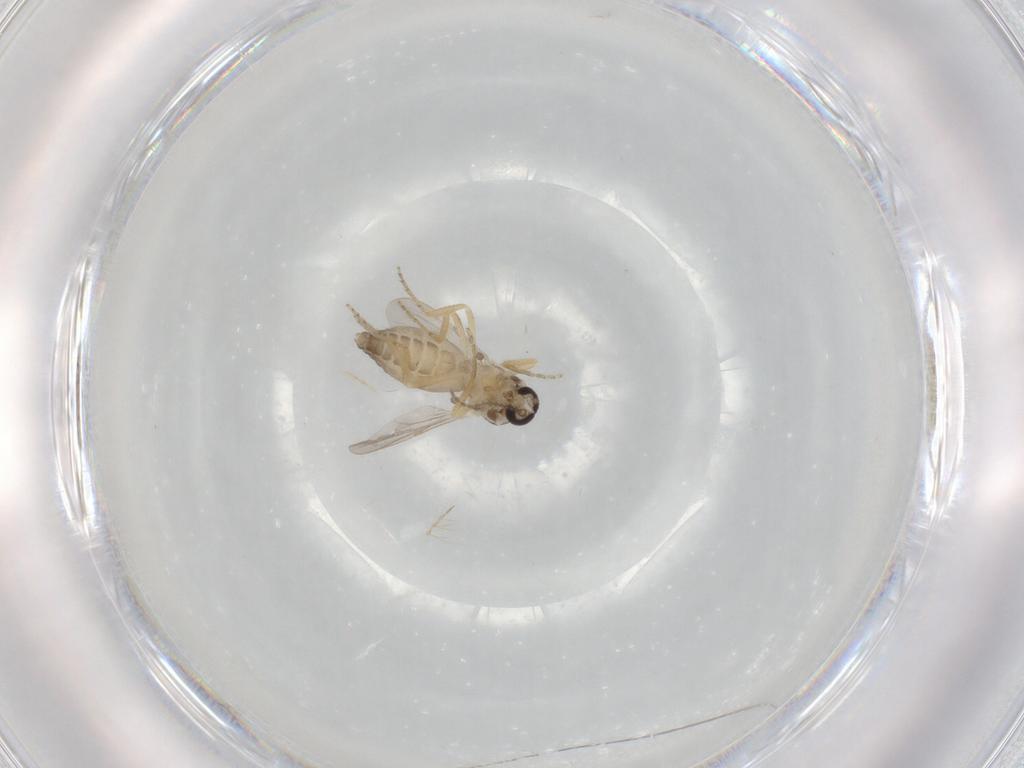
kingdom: Animalia
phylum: Arthropoda
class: Insecta
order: Diptera
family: Ceratopogonidae
